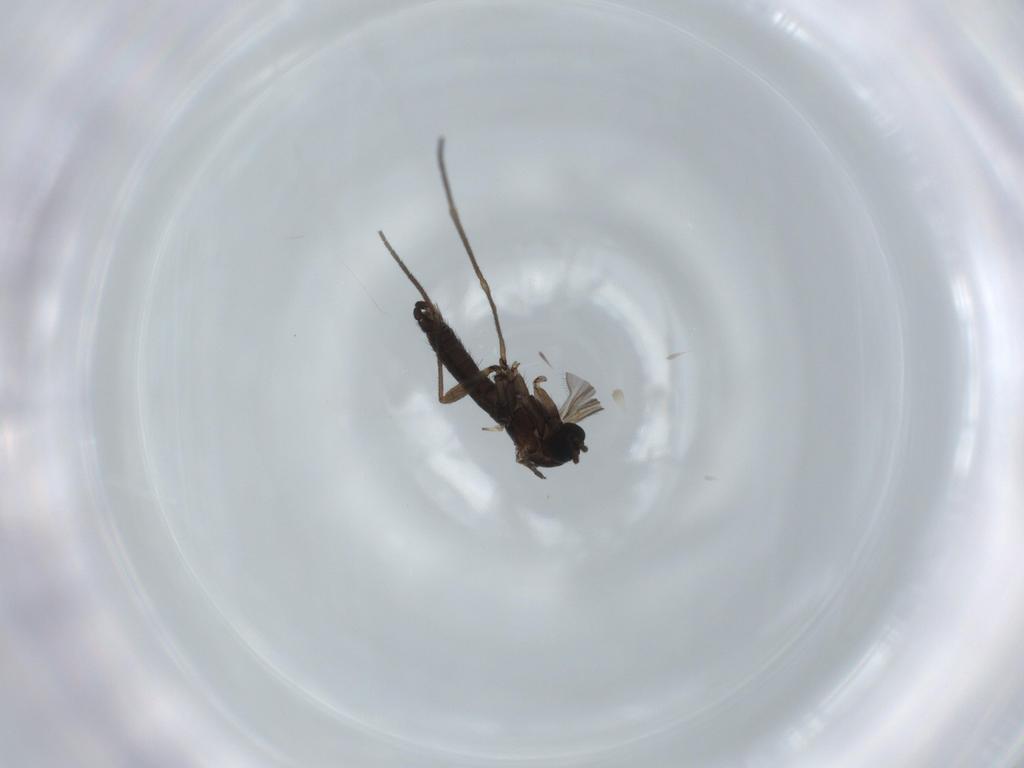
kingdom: Animalia
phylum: Arthropoda
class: Insecta
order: Diptera
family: Sciaridae
